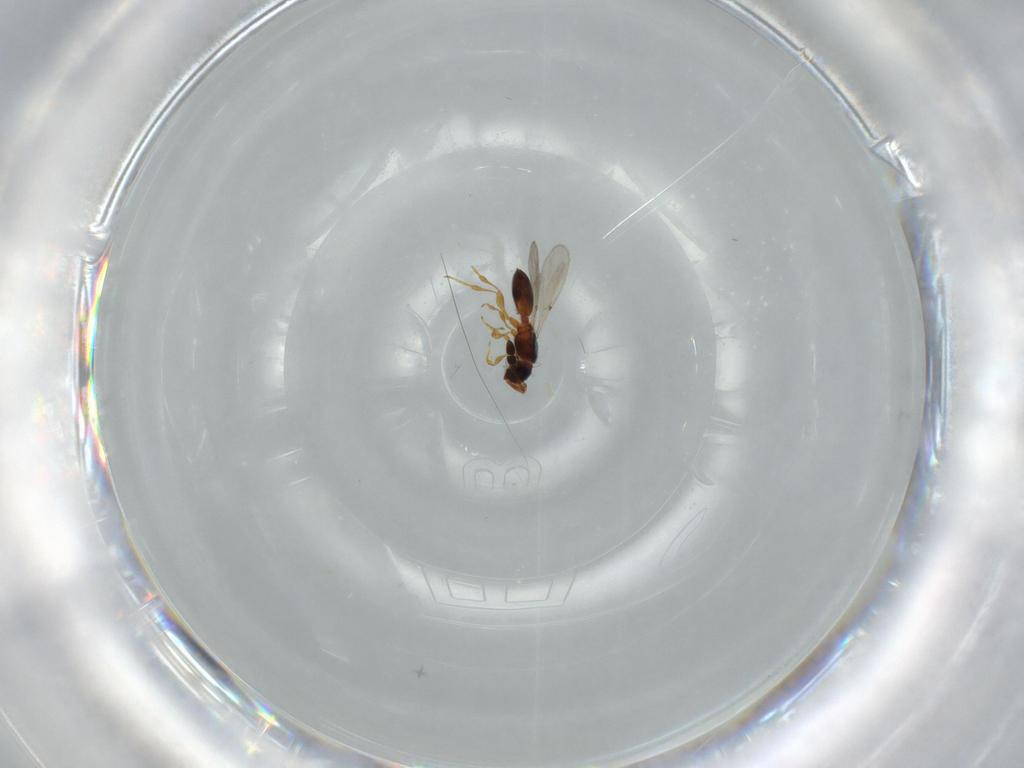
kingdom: Animalia
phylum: Arthropoda
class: Insecta
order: Hymenoptera
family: Diapriidae
